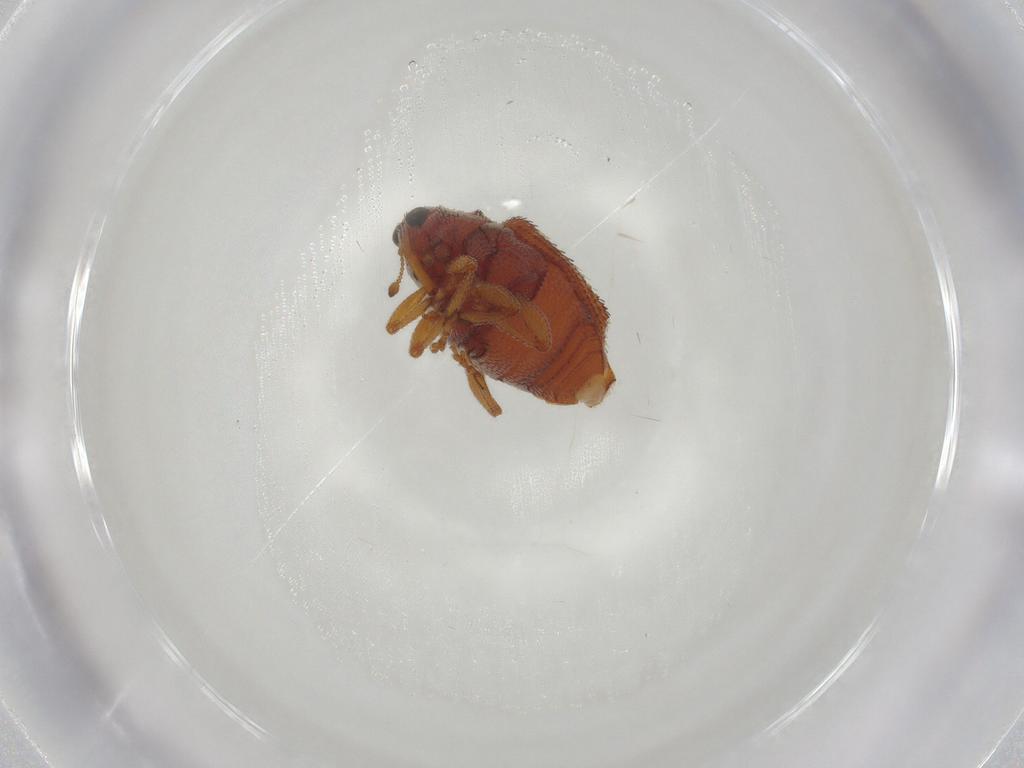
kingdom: Animalia
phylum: Arthropoda
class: Insecta
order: Coleoptera
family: Curculionidae
